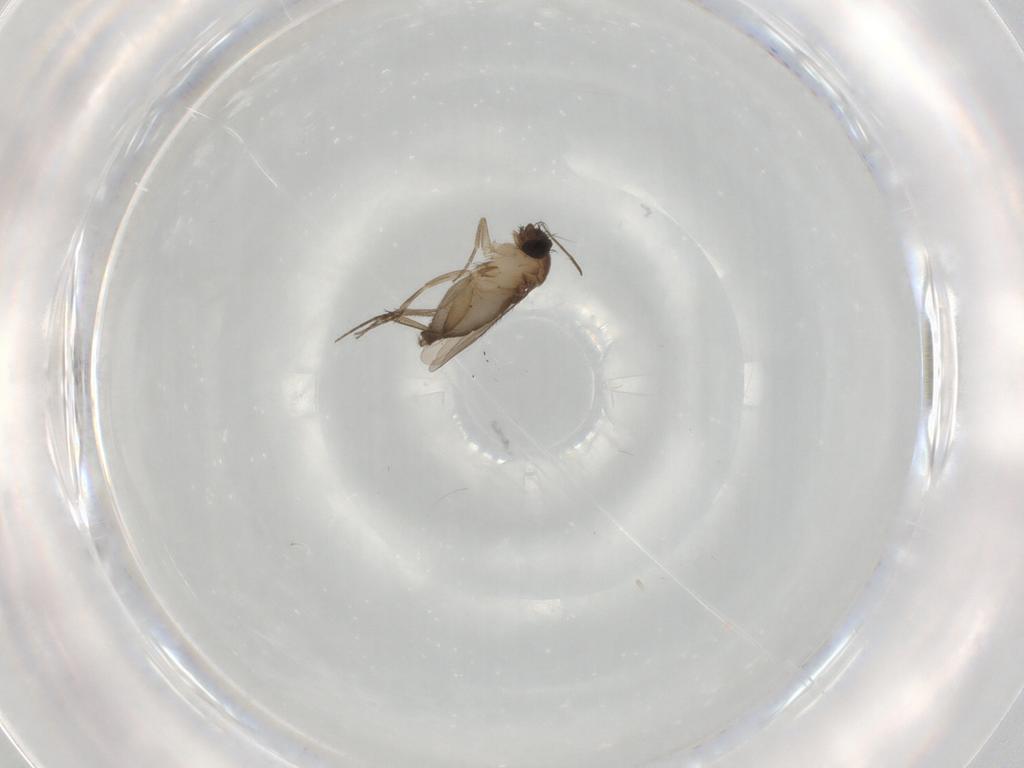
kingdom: Animalia
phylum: Arthropoda
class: Insecta
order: Diptera
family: Phoridae
